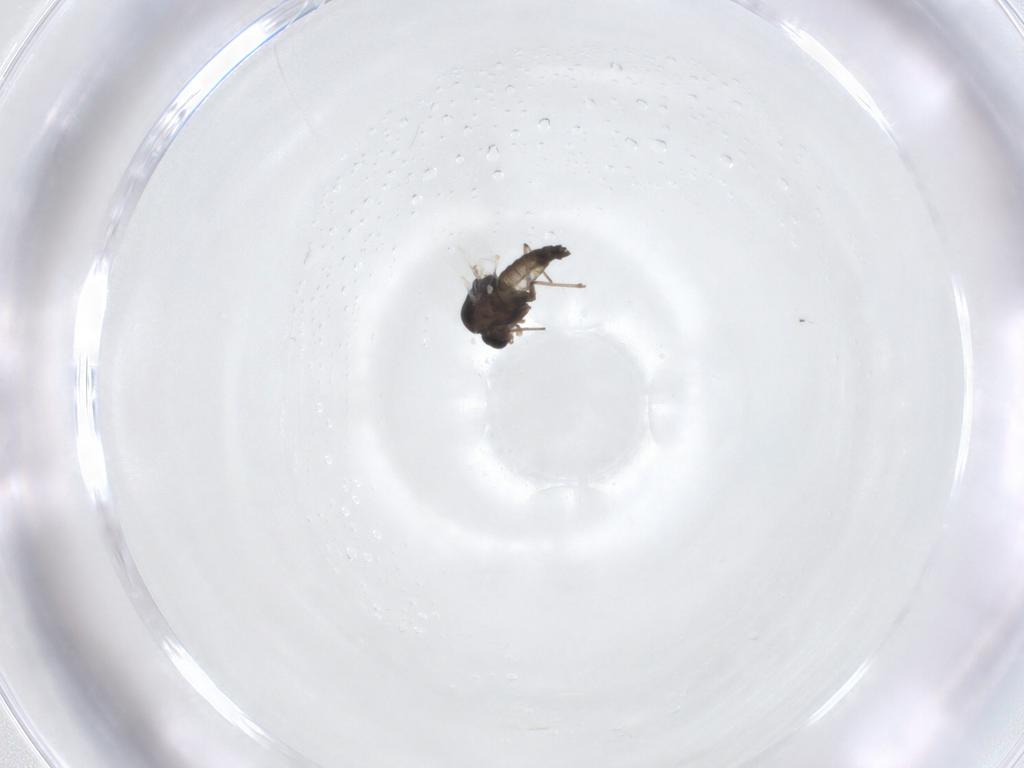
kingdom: Animalia
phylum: Arthropoda
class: Insecta
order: Diptera
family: Chironomidae
